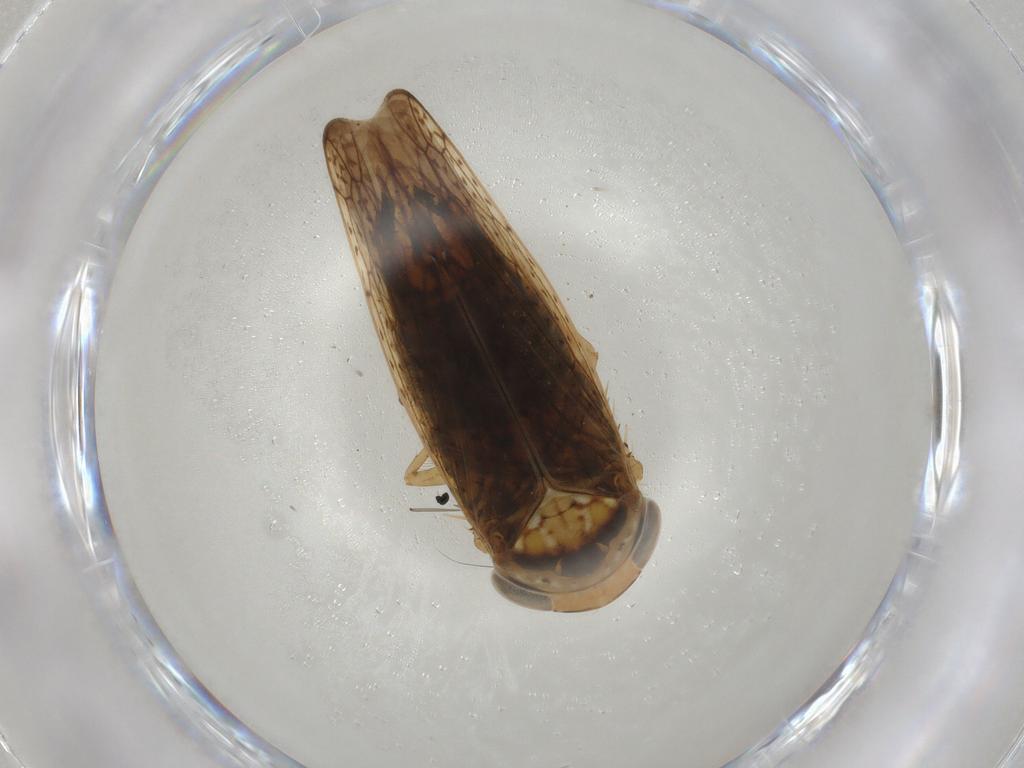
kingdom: Animalia
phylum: Arthropoda
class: Insecta
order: Hemiptera
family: Cicadellidae
